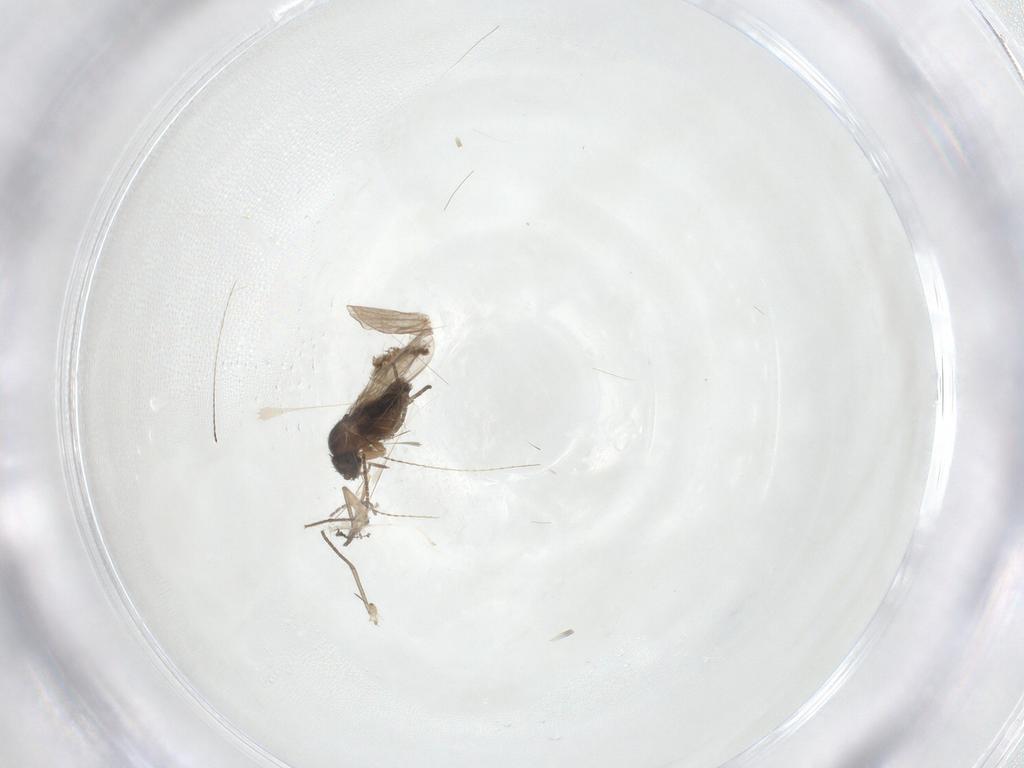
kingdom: Animalia
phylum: Arthropoda
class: Insecta
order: Diptera
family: Sciaridae
